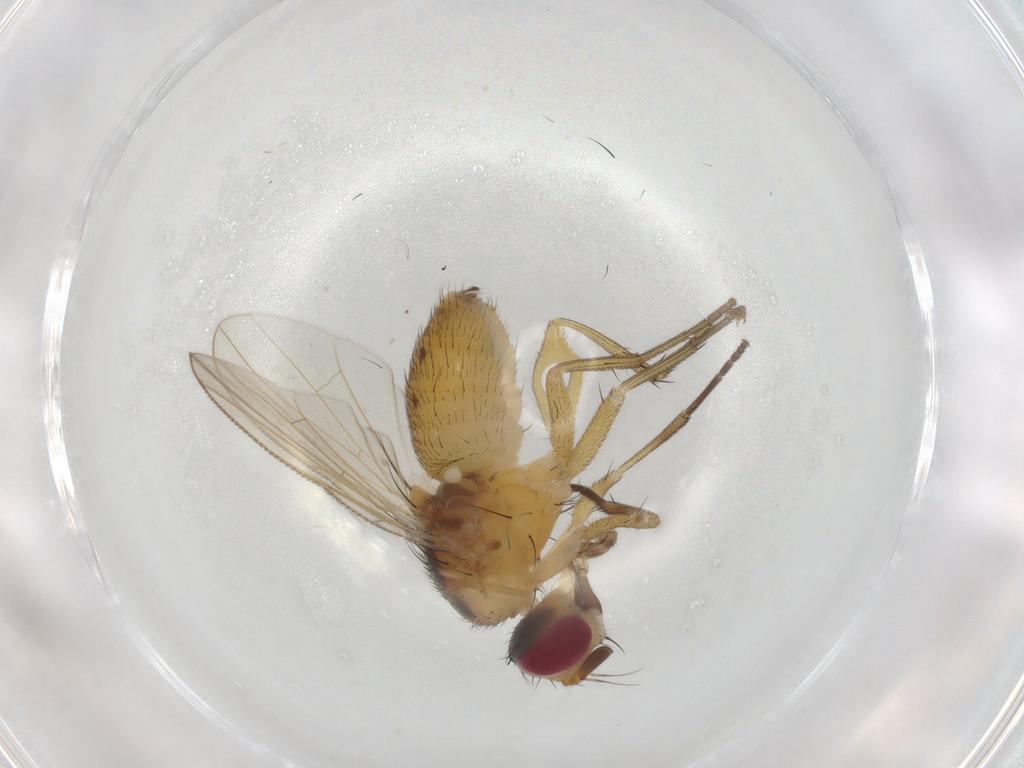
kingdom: Animalia
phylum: Arthropoda
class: Insecta
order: Diptera
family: Muscidae
